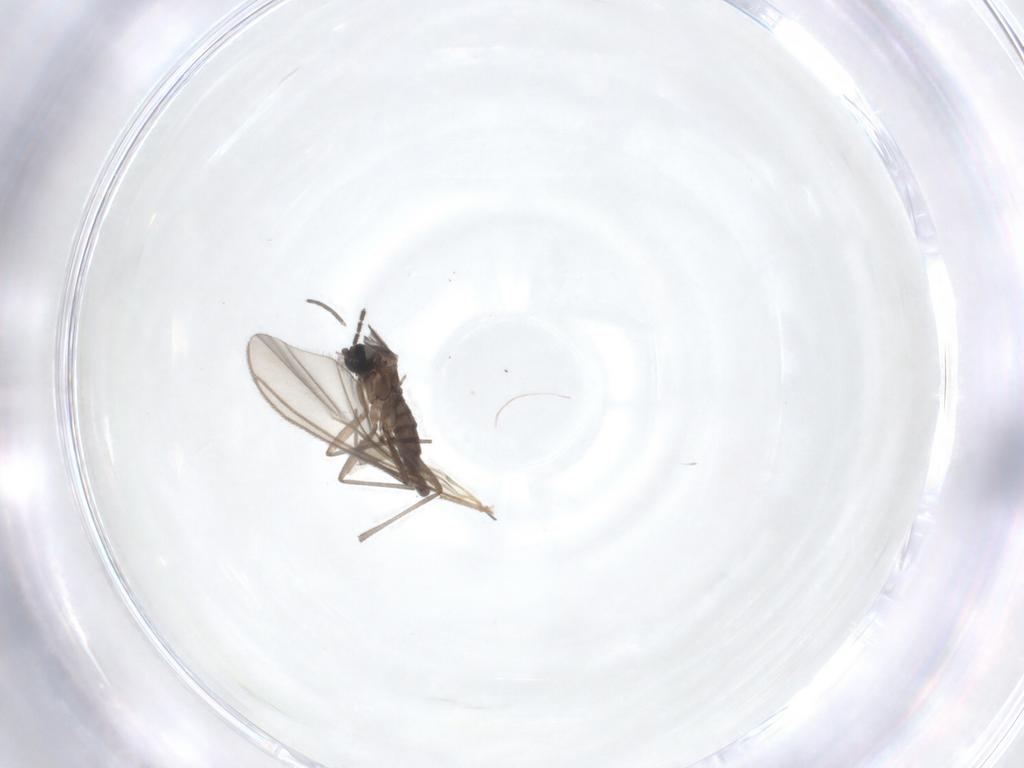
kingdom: Animalia
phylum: Arthropoda
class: Insecta
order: Diptera
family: Sciaridae
